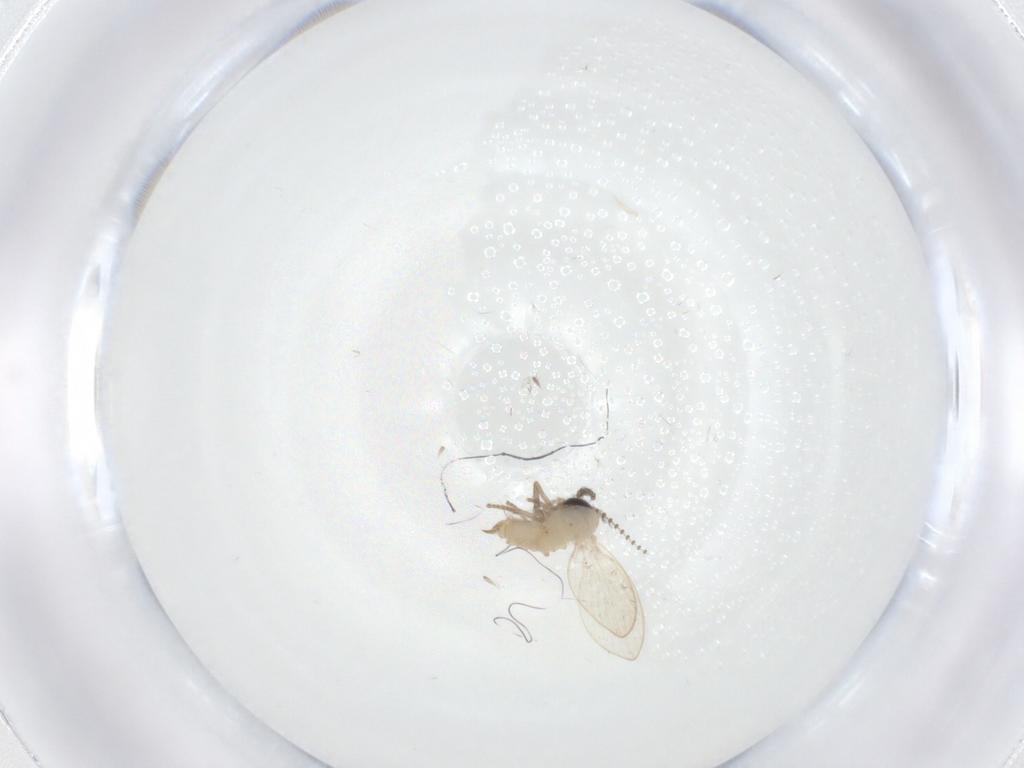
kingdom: Animalia
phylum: Arthropoda
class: Insecta
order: Diptera
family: Psychodidae
